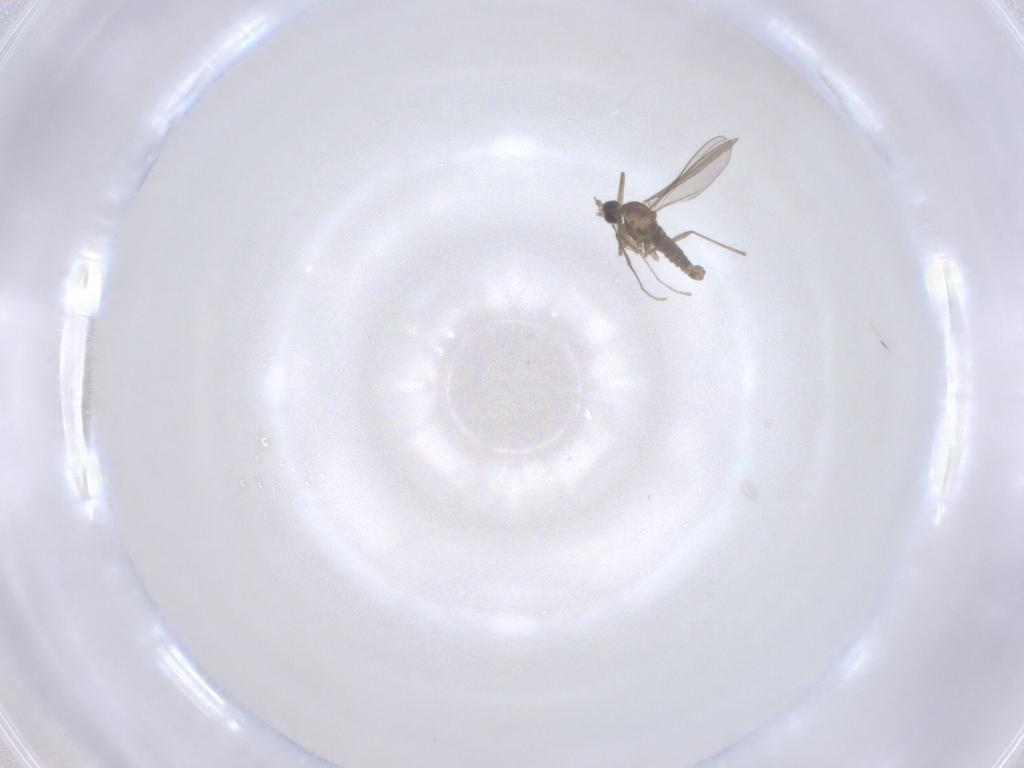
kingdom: Animalia
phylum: Arthropoda
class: Insecta
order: Diptera
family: Cecidomyiidae
